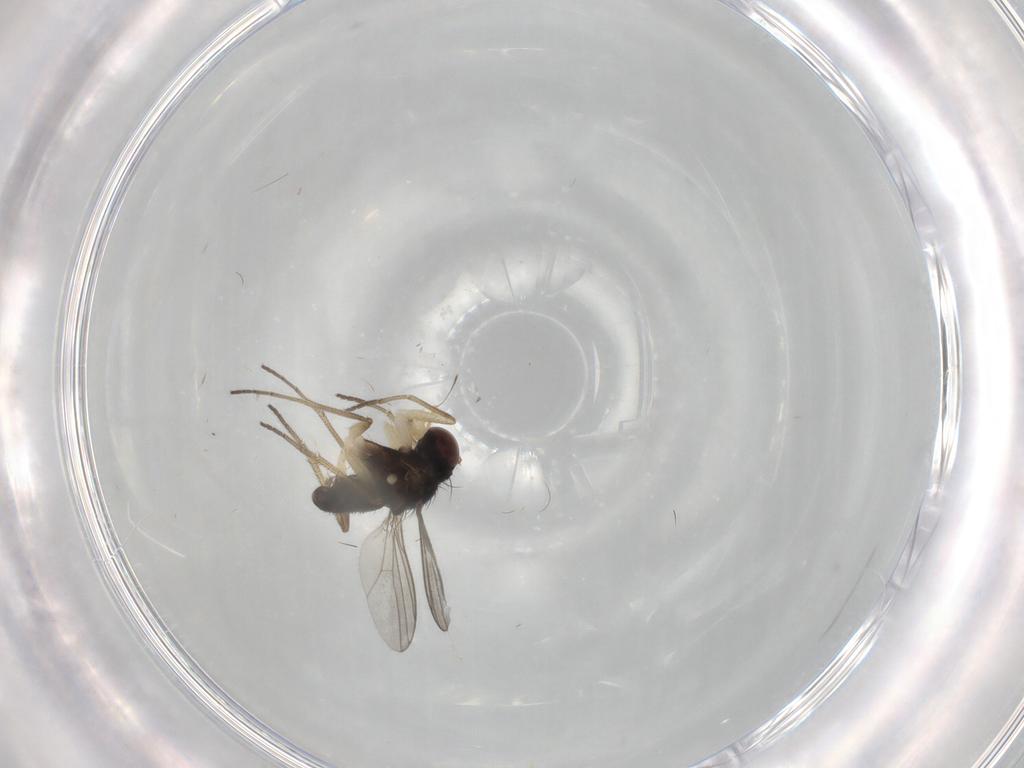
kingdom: Animalia
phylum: Arthropoda
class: Insecta
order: Diptera
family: Dolichopodidae
